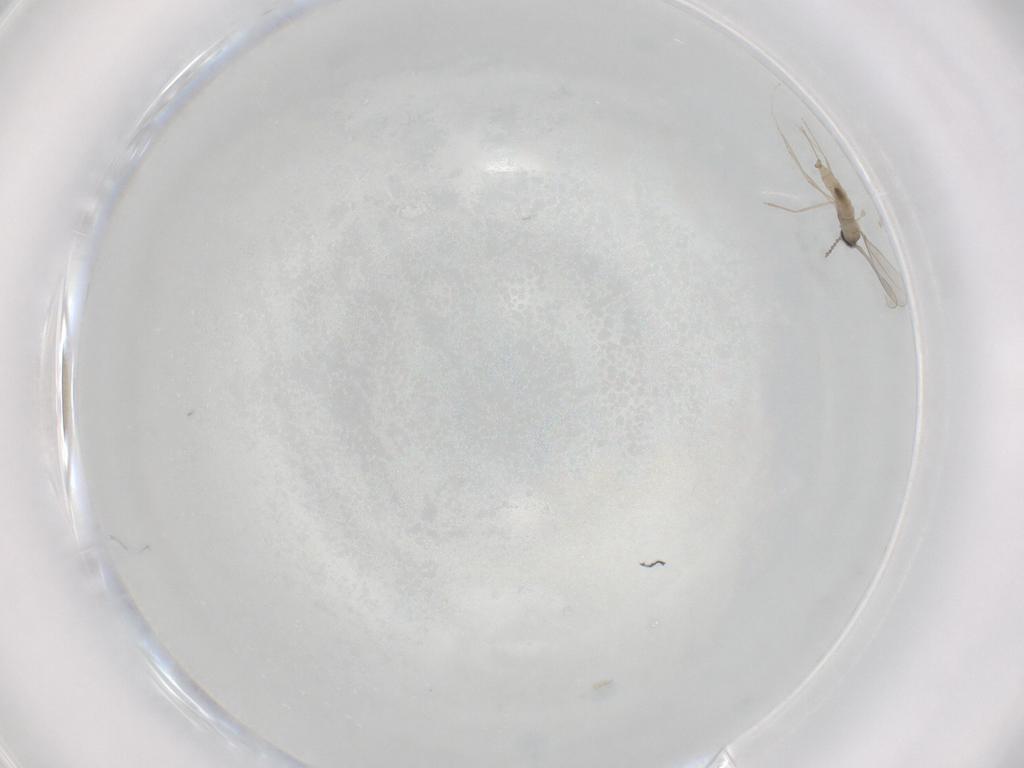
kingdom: Animalia
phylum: Arthropoda
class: Insecta
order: Diptera
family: Cecidomyiidae
